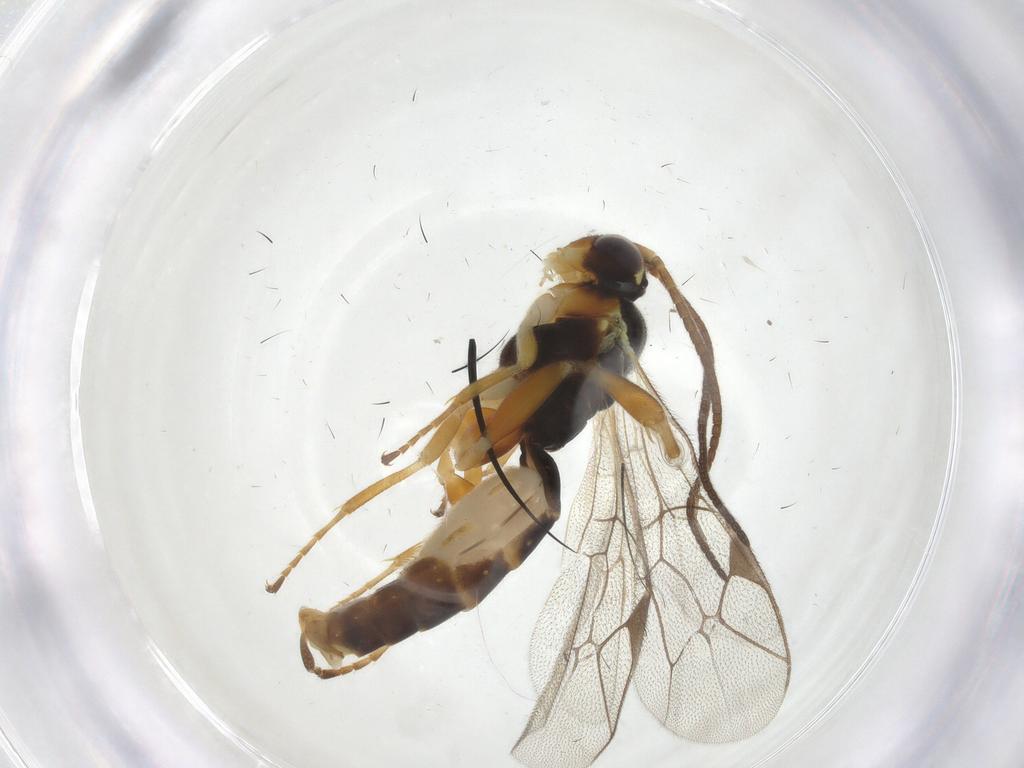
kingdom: Animalia
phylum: Arthropoda
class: Insecta
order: Hymenoptera
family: Ichneumonidae
